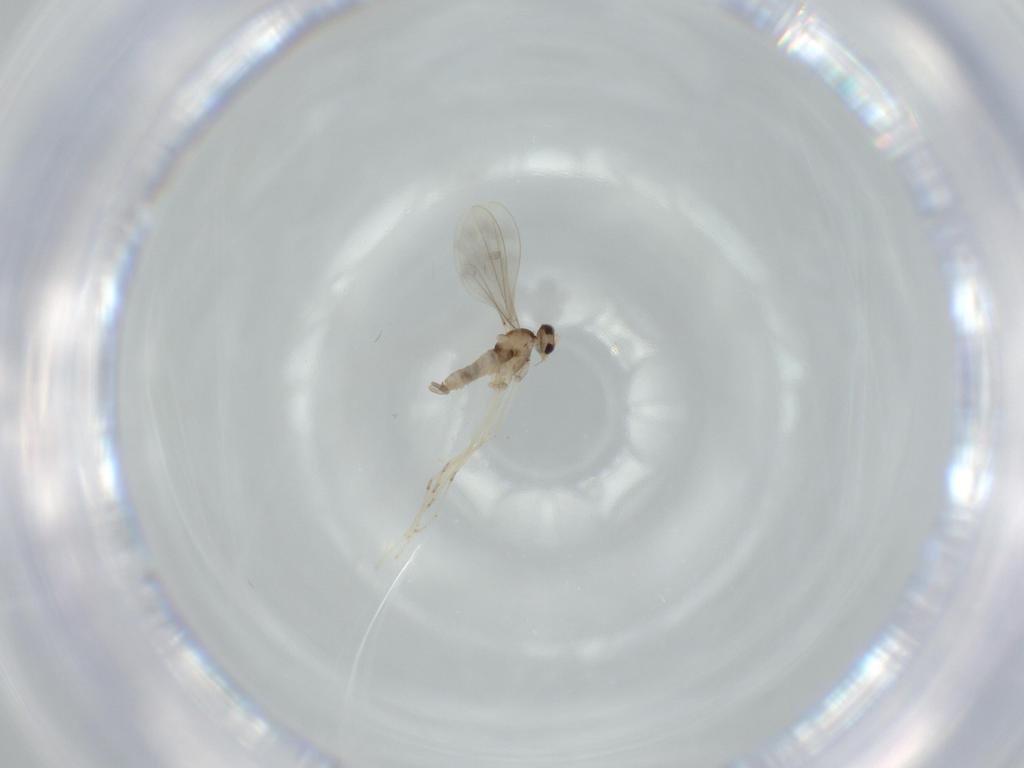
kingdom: Animalia
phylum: Arthropoda
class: Insecta
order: Diptera
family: Cecidomyiidae
